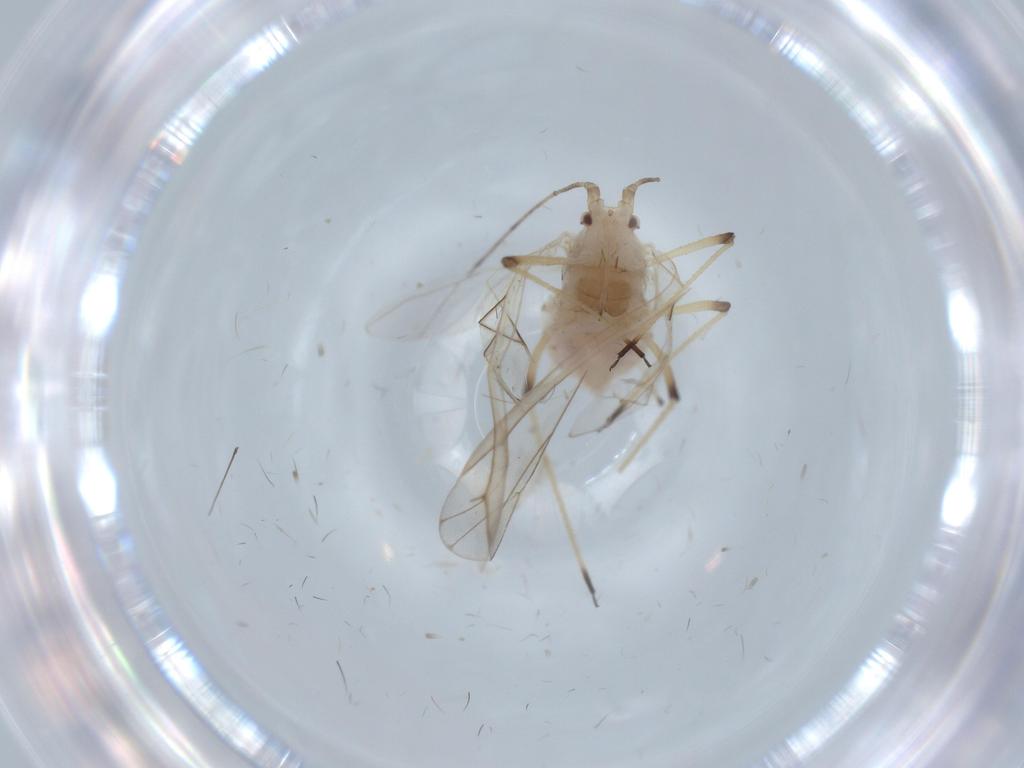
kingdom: Animalia
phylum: Arthropoda
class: Insecta
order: Hemiptera
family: Aphididae
